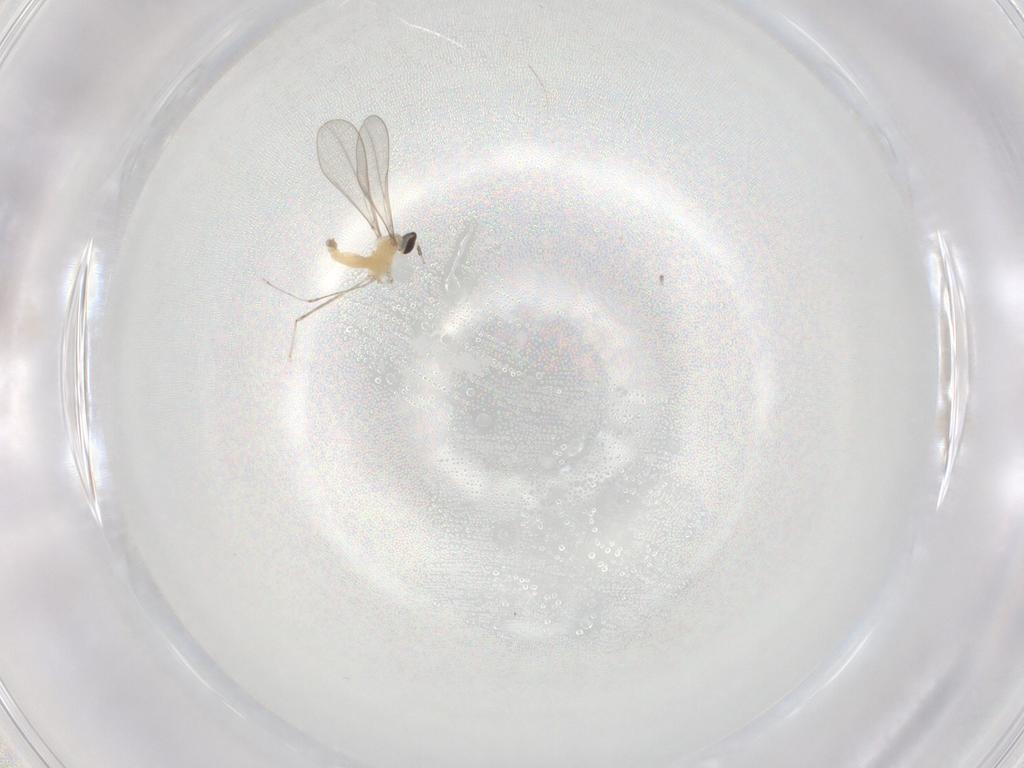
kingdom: Animalia
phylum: Arthropoda
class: Insecta
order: Diptera
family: Cecidomyiidae
